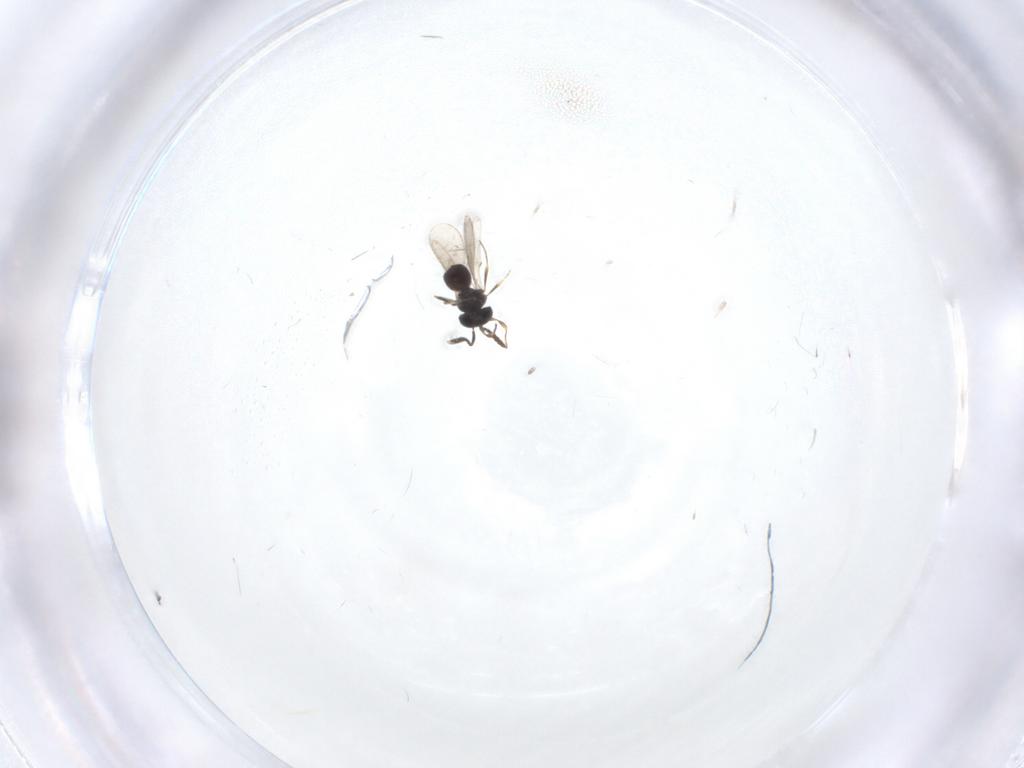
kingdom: Animalia
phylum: Arthropoda
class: Insecta
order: Hymenoptera
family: Scelionidae
